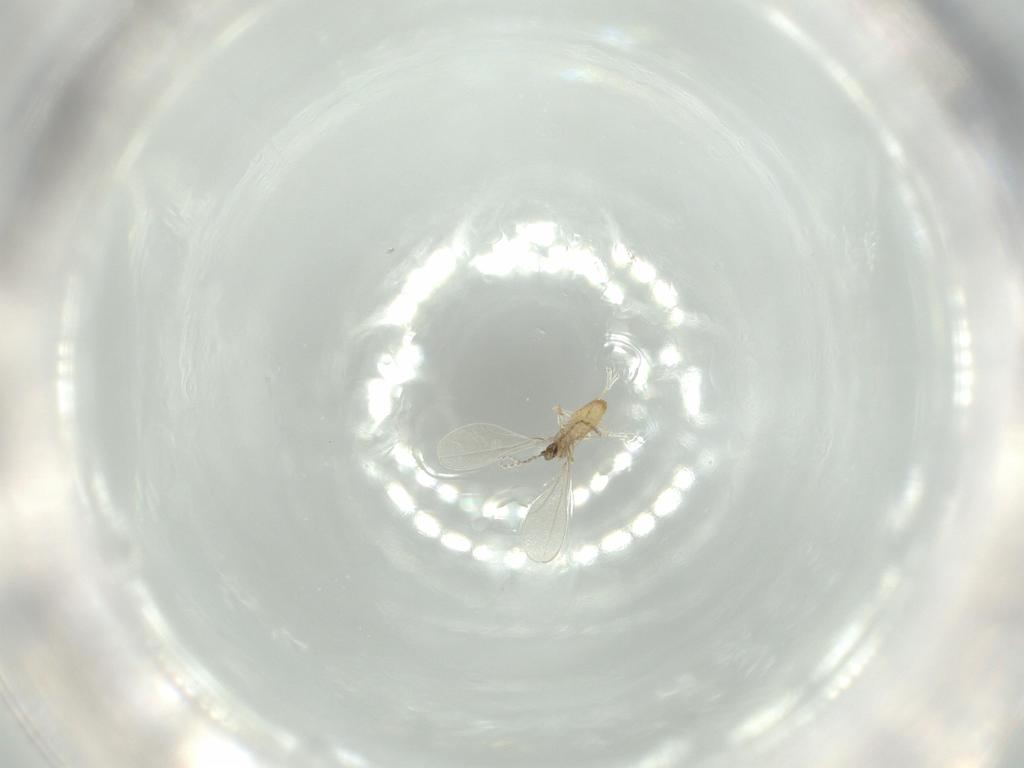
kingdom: Animalia
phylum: Arthropoda
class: Insecta
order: Diptera
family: Cecidomyiidae
